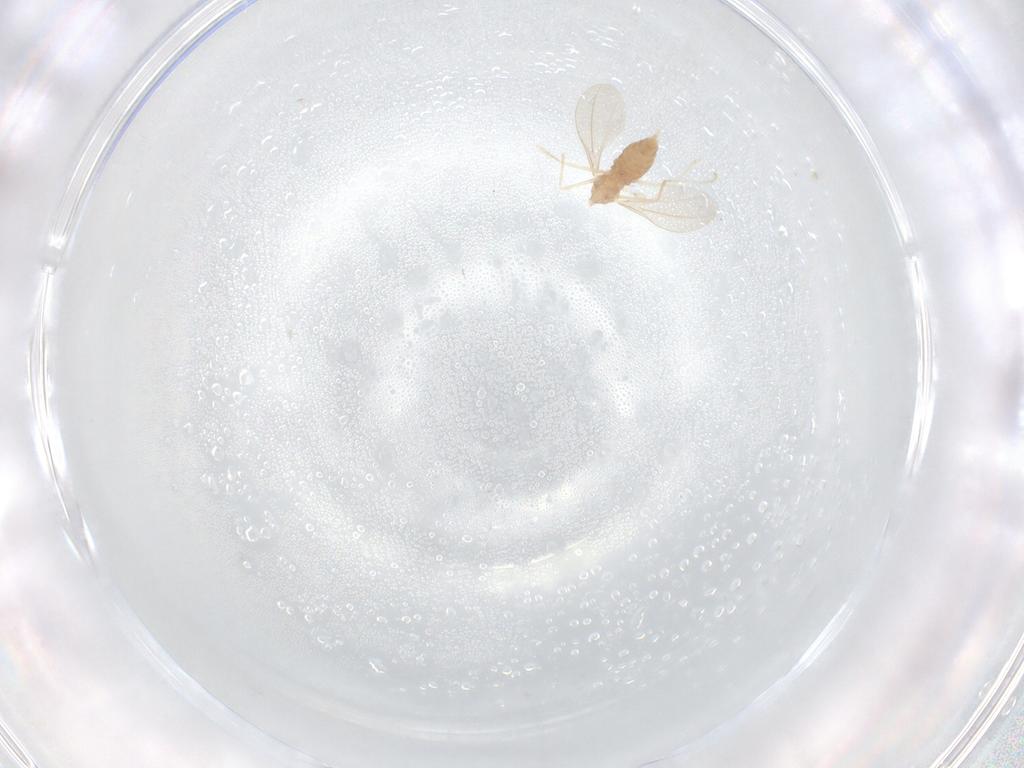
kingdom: Animalia
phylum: Arthropoda
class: Insecta
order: Diptera
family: Cecidomyiidae
